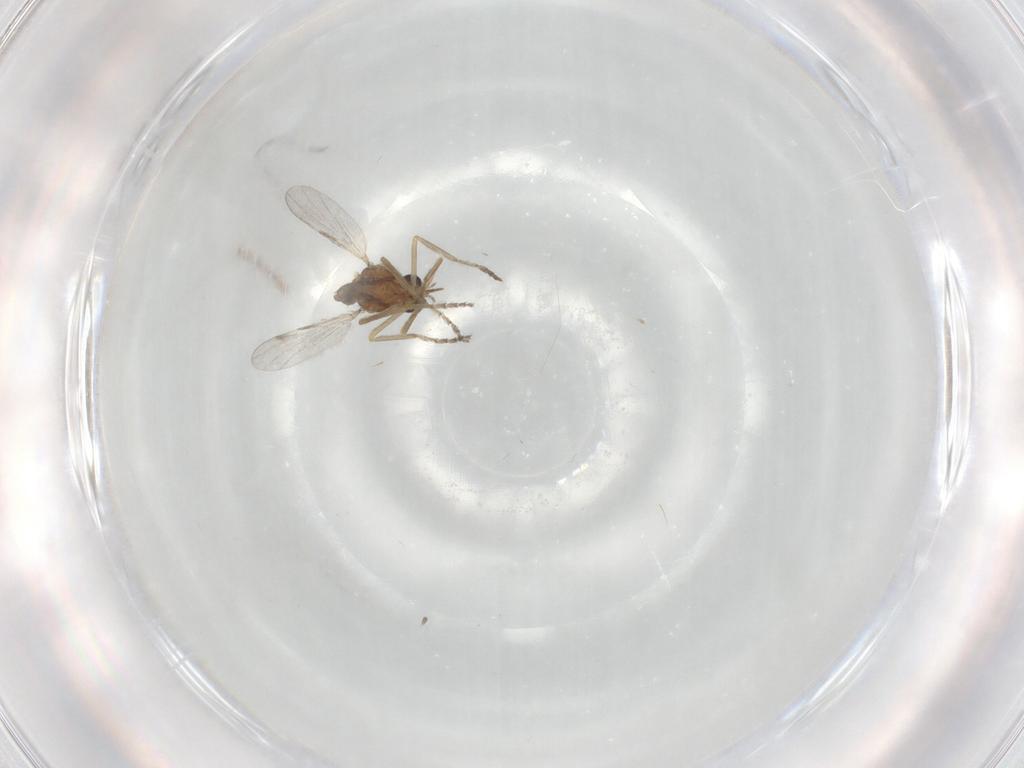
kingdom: Animalia
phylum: Arthropoda
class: Insecta
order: Diptera
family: Ceratopogonidae
